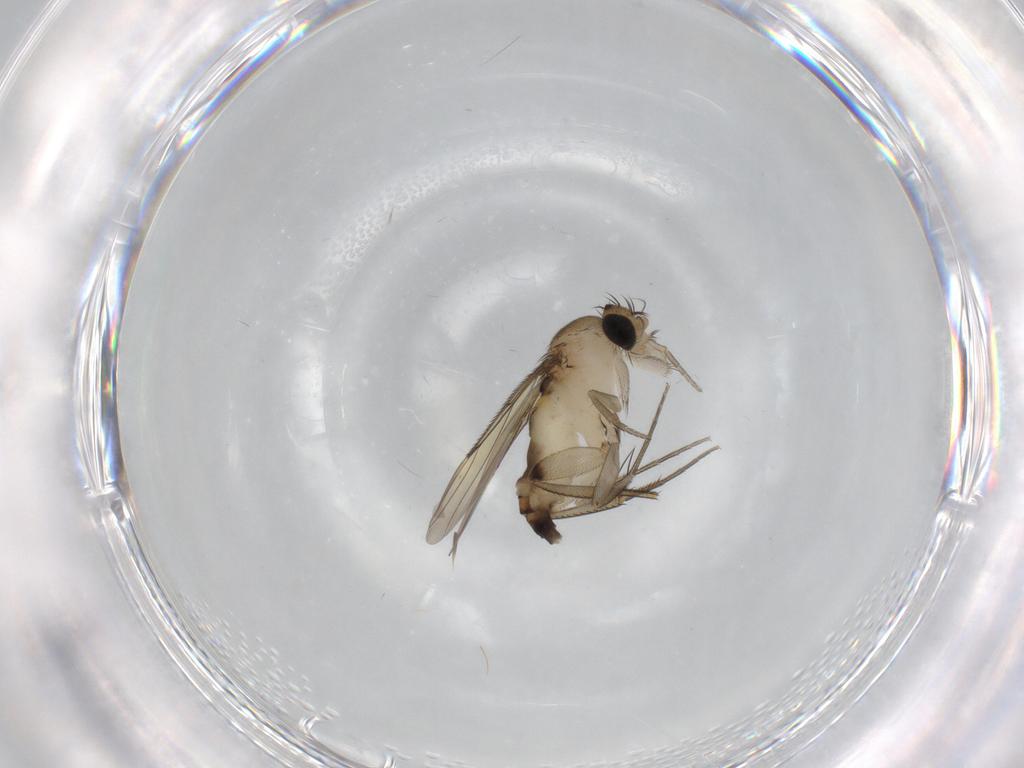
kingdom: Animalia
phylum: Arthropoda
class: Insecta
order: Diptera
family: Phoridae
